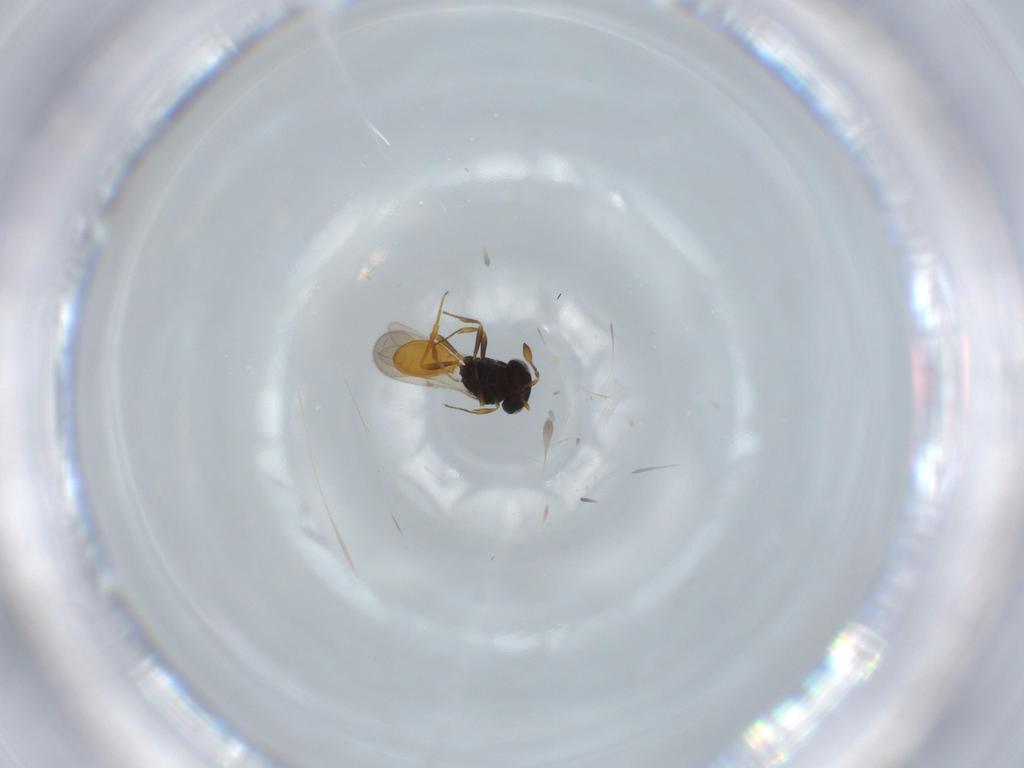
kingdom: Animalia
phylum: Arthropoda
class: Insecta
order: Hymenoptera
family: Scelionidae
